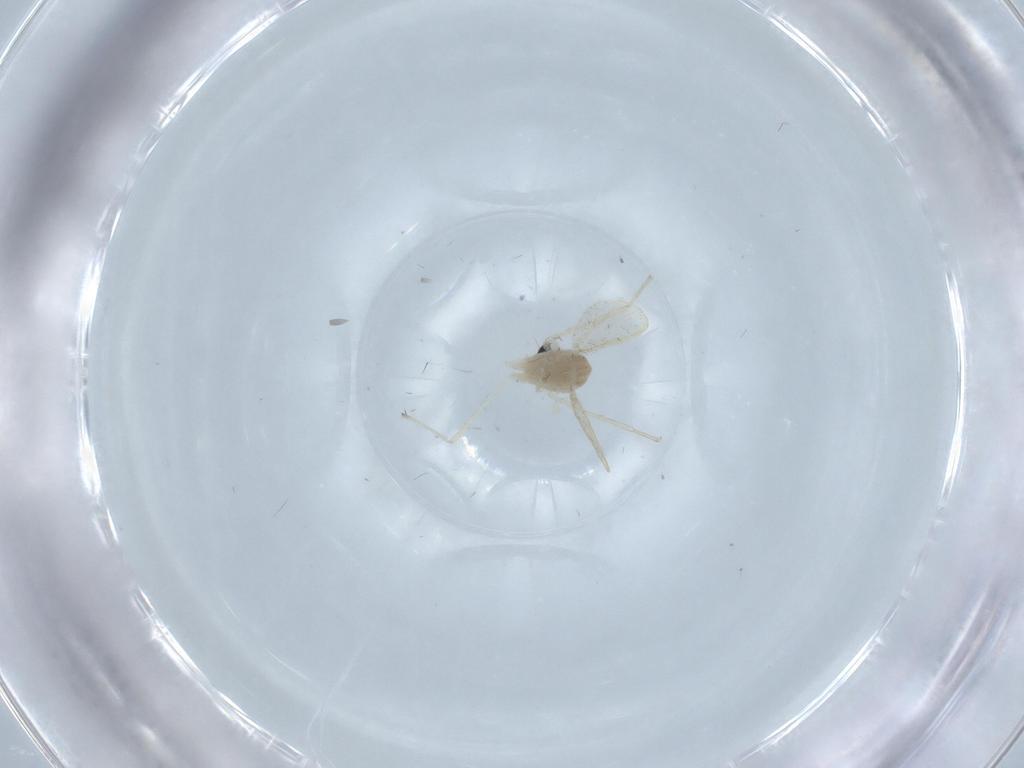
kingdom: Animalia
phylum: Arthropoda
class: Insecta
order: Diptera
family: Chironomidae
